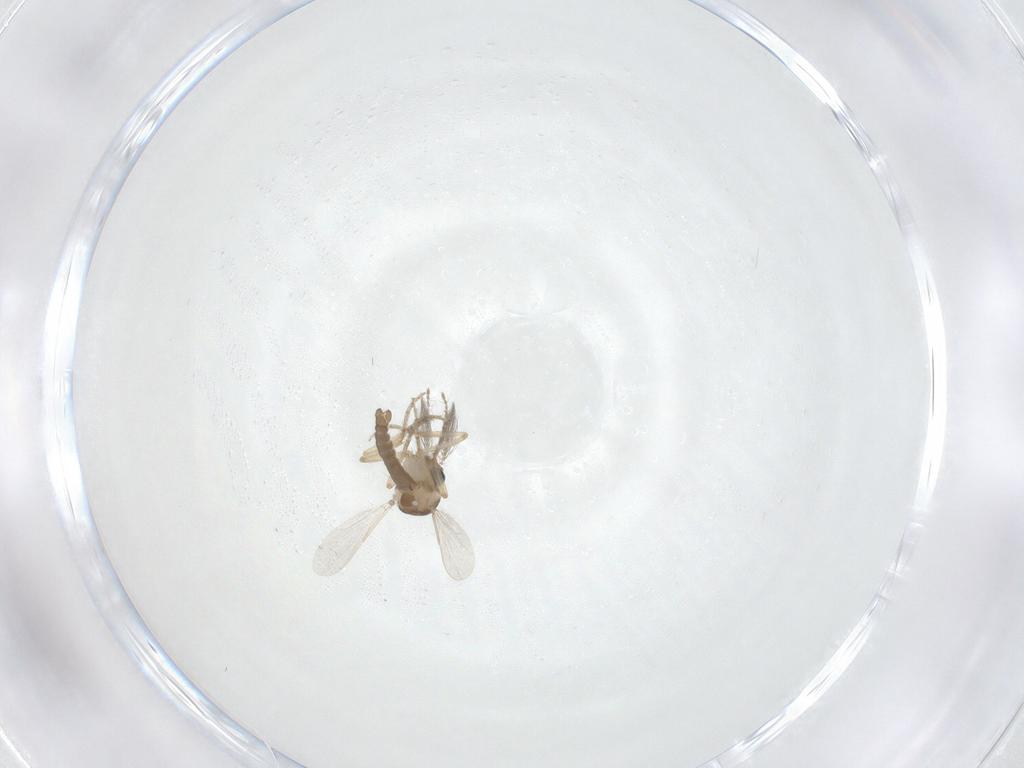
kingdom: Animalia
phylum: Arthropoda
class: Insecta
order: Diptera
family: Ceratopogonidae
